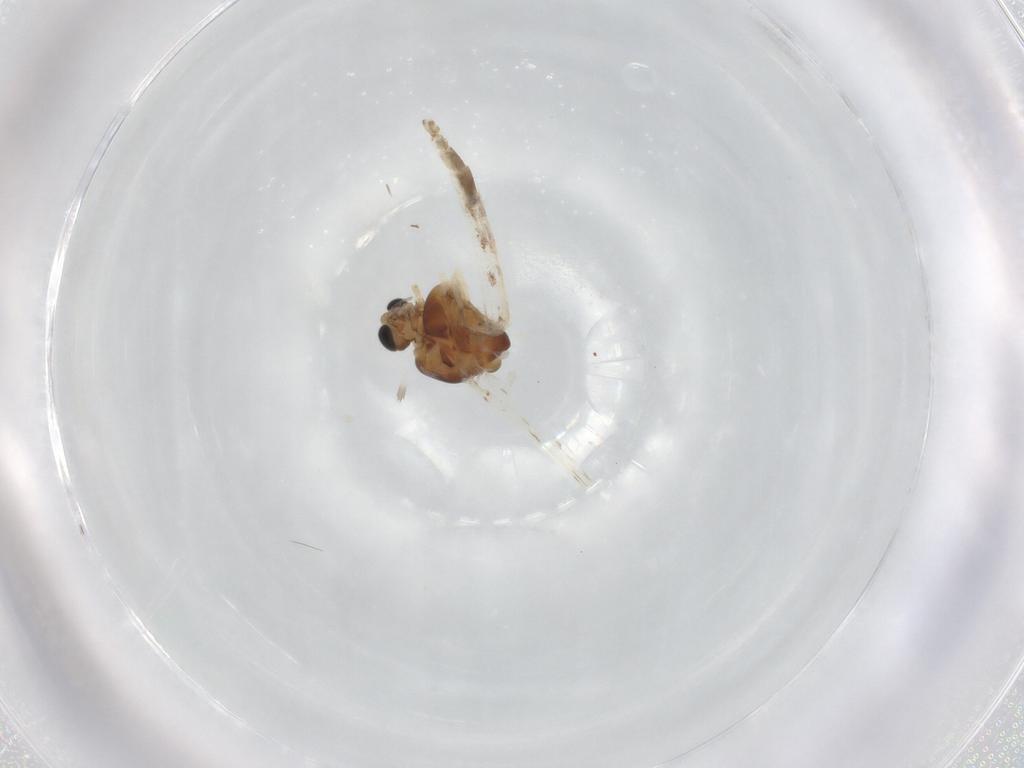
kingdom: Animalia
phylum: Arthropoda
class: Insecta
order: Diptera
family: Chironomidae
